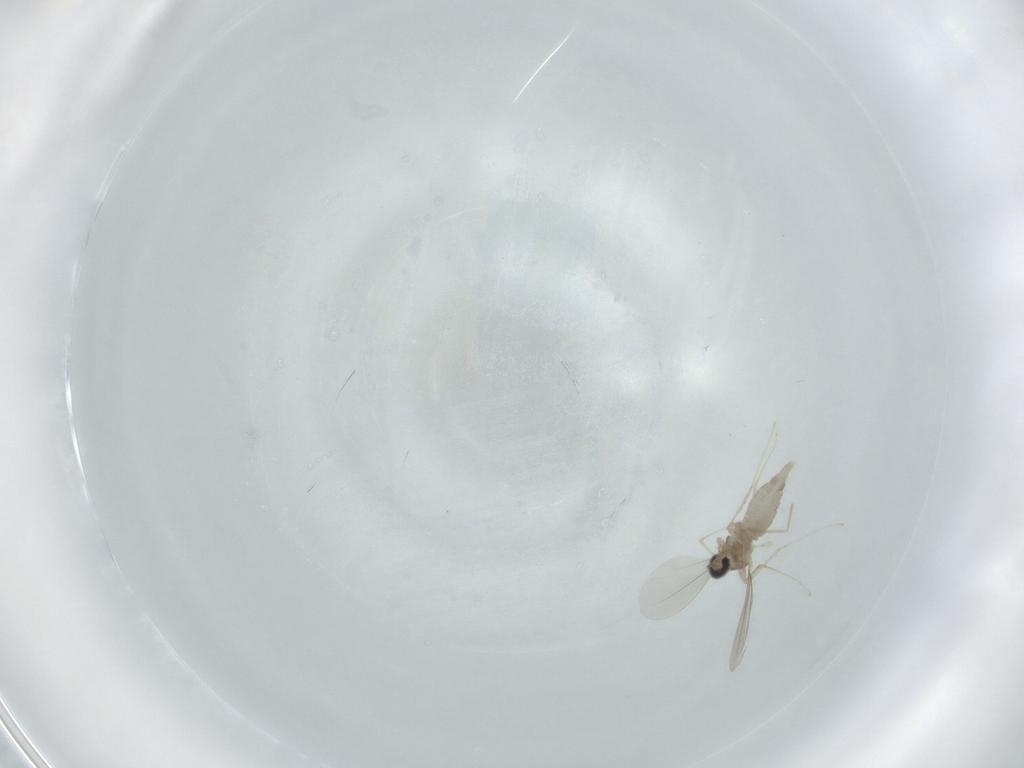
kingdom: Animalia
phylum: Arthropoda
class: Insecta
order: Diptera
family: Cecidomyiidae
